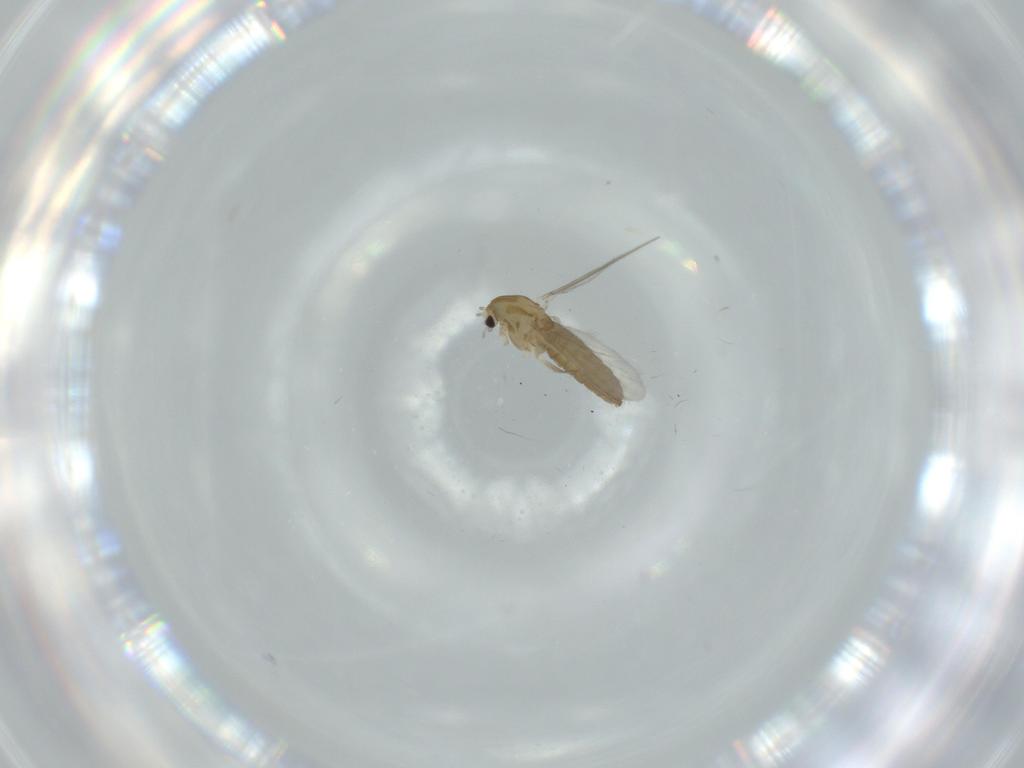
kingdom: Animalia
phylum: Arthropoda
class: Insecta
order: Diptera
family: Chironomidae
